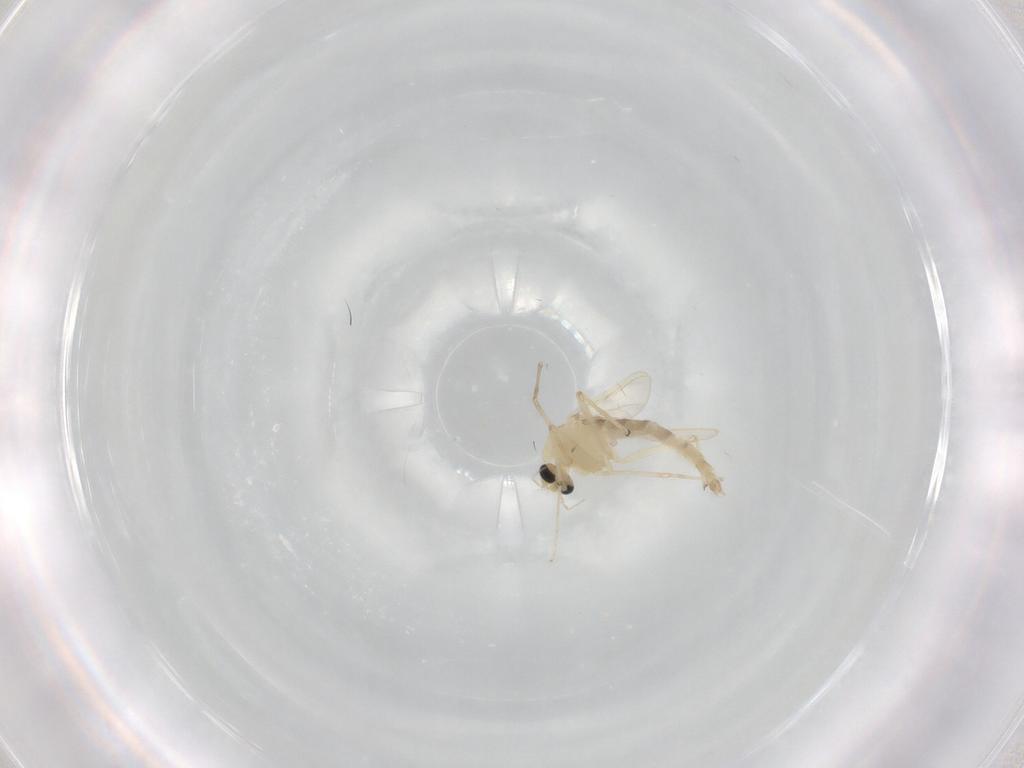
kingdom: Animalia
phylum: Arthropoda
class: Insecta
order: Diptera
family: Chironomidae
